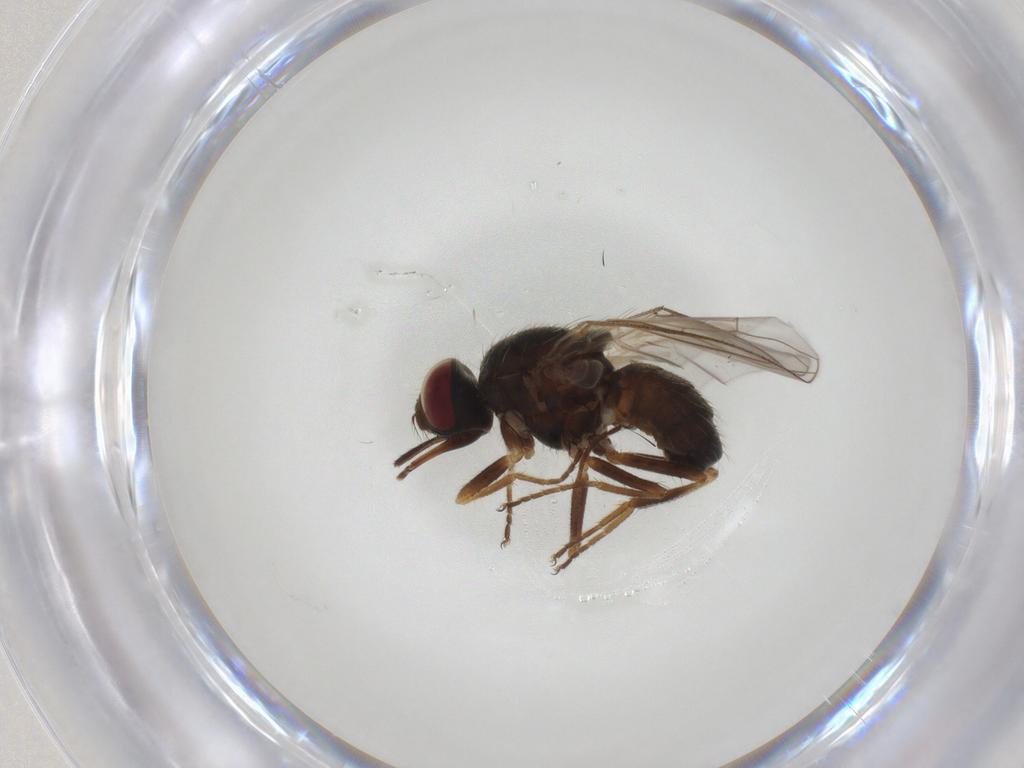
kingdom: Animalia
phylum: Arthropoda
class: Insecta
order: Diptera
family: Muscidae
